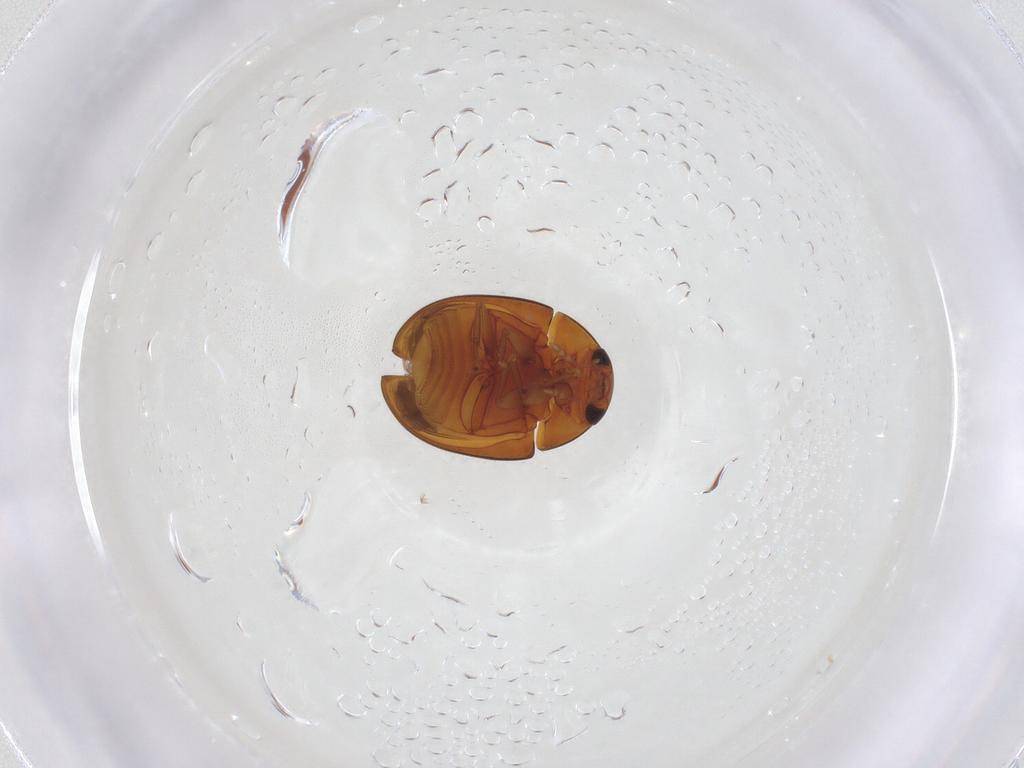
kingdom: Animalia
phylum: Arthropoda
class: Insecta
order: Coleoptera
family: Phalacridae
